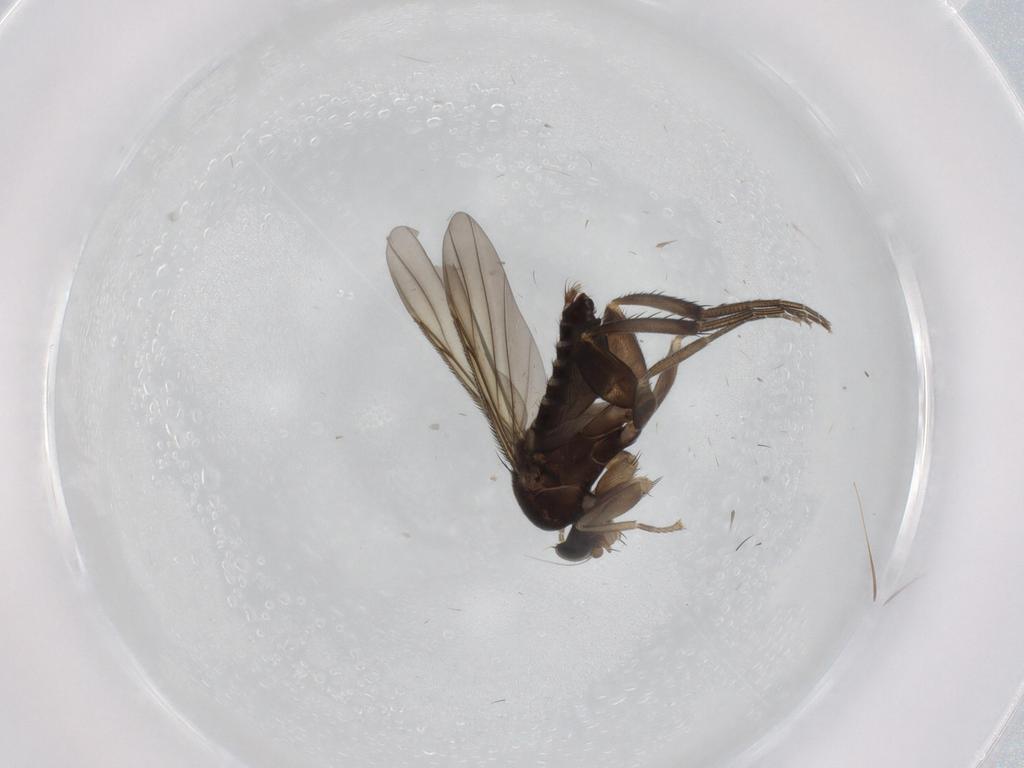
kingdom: Animalia
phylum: Arthropoda
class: Insecta
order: Diptera
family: Phoridae
